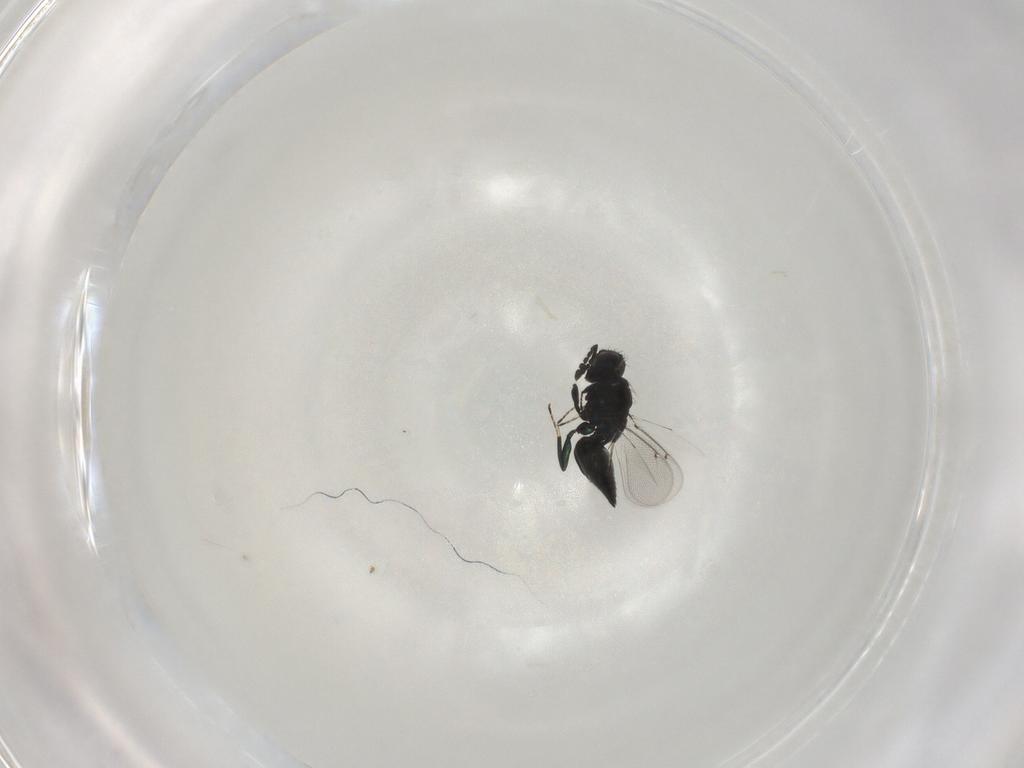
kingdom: Animalia
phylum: Arthropoda
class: Insecta
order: Hymenoptera
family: Eulophidae
